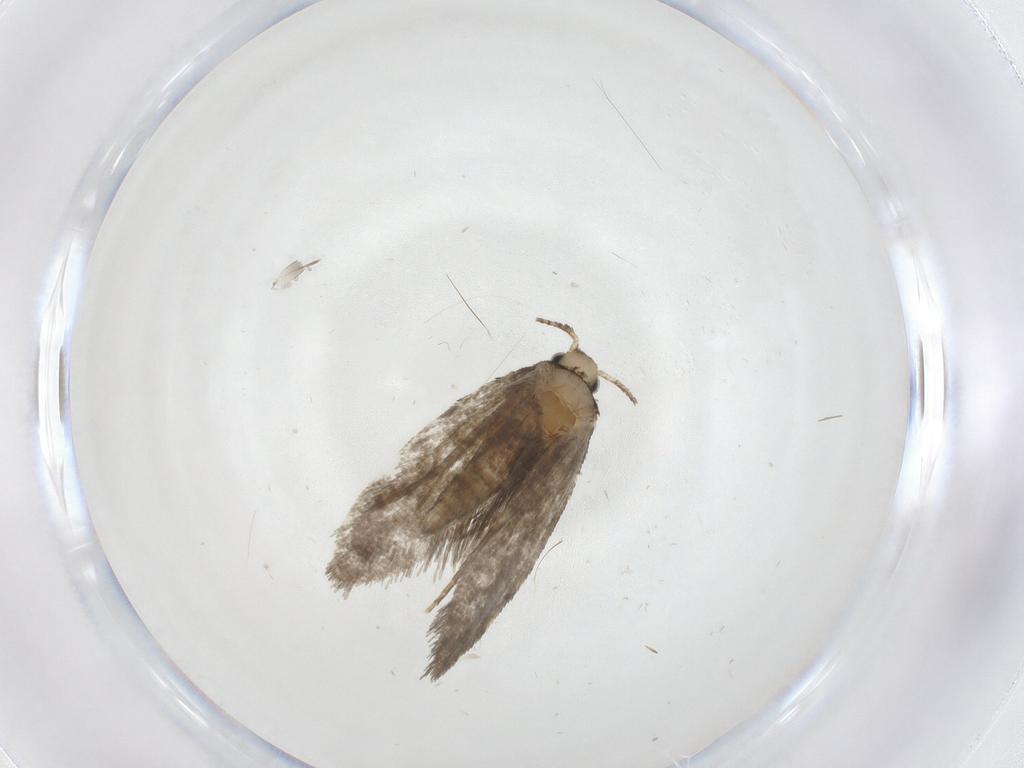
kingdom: Animalia
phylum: Arthropoda
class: Insecta
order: Lepidoptera
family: Psychidae
